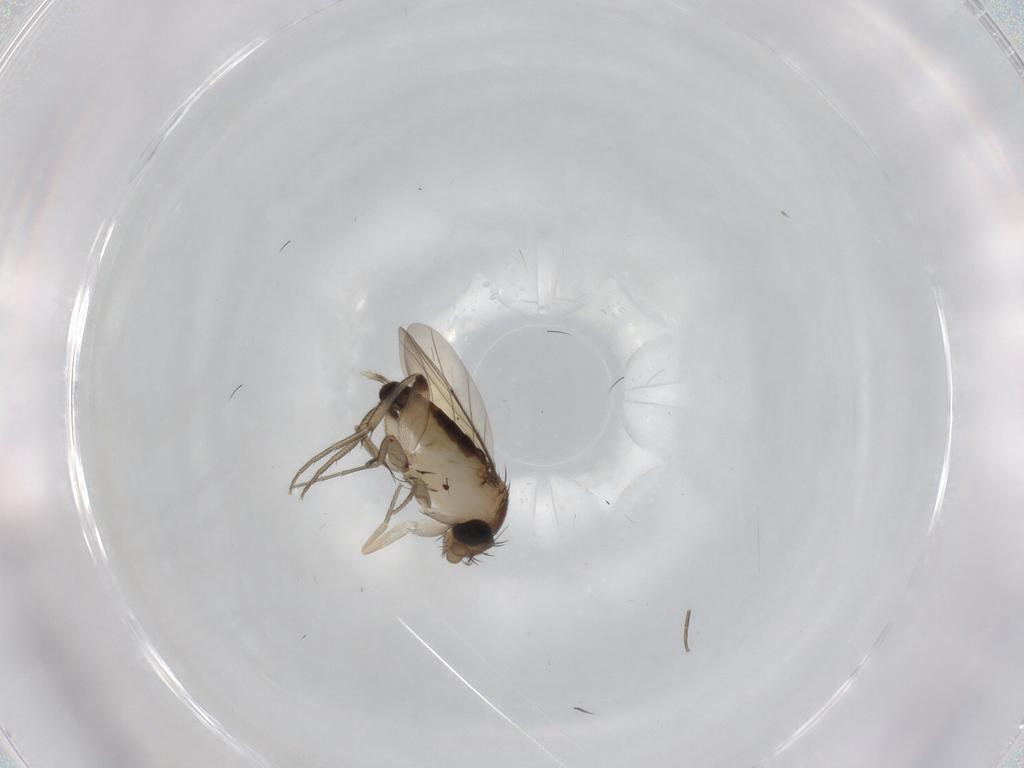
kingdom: Animalia
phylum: Arthropoda
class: Insecta
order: Diptera
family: Phoridae
